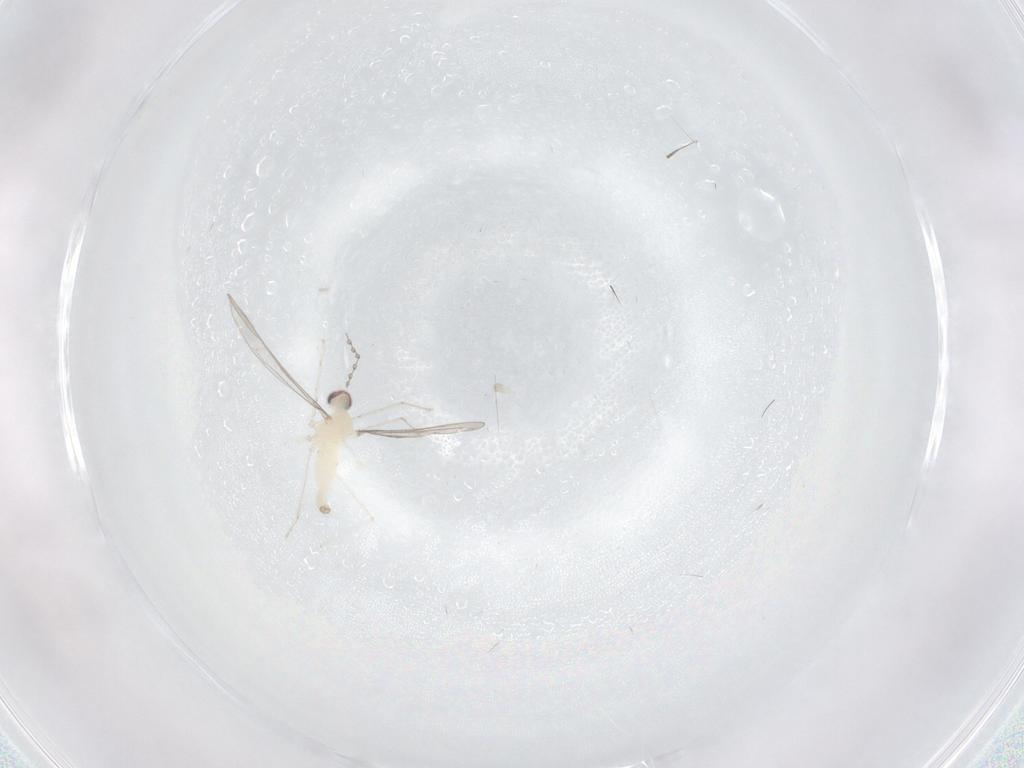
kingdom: Animalia
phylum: Arthropoda
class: Insecta
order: Diptera
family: Cecidomyiidae
